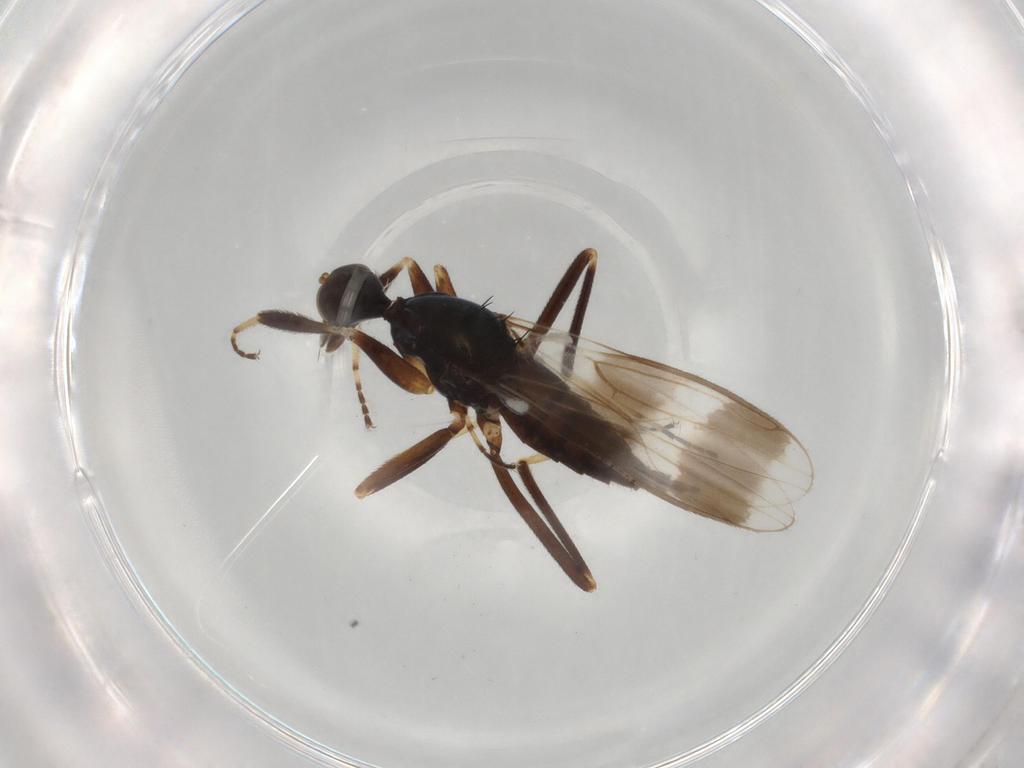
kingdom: Animalia
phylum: Arthropoda
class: Insecta
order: Diptera
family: Hybotidae
